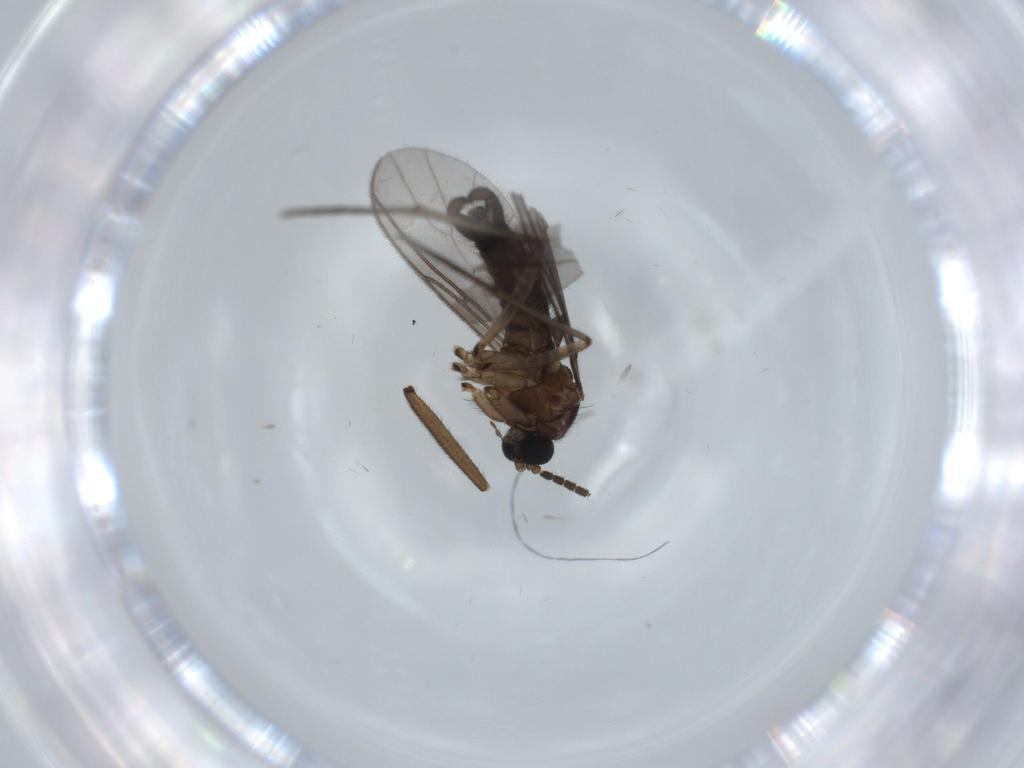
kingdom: Animalia
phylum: Arthropoda
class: Insecta
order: Diptera
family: Sciaridae
